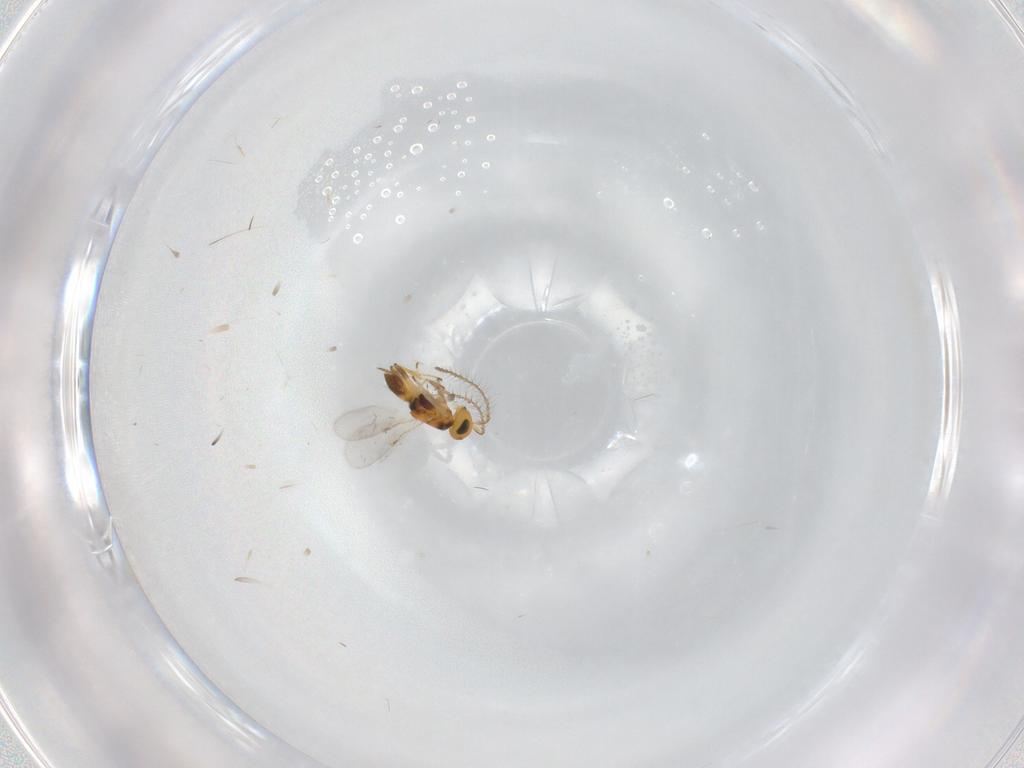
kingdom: Animalia
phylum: Arthropoda
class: Insecta
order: Hymenoptera
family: Encyrtidae
